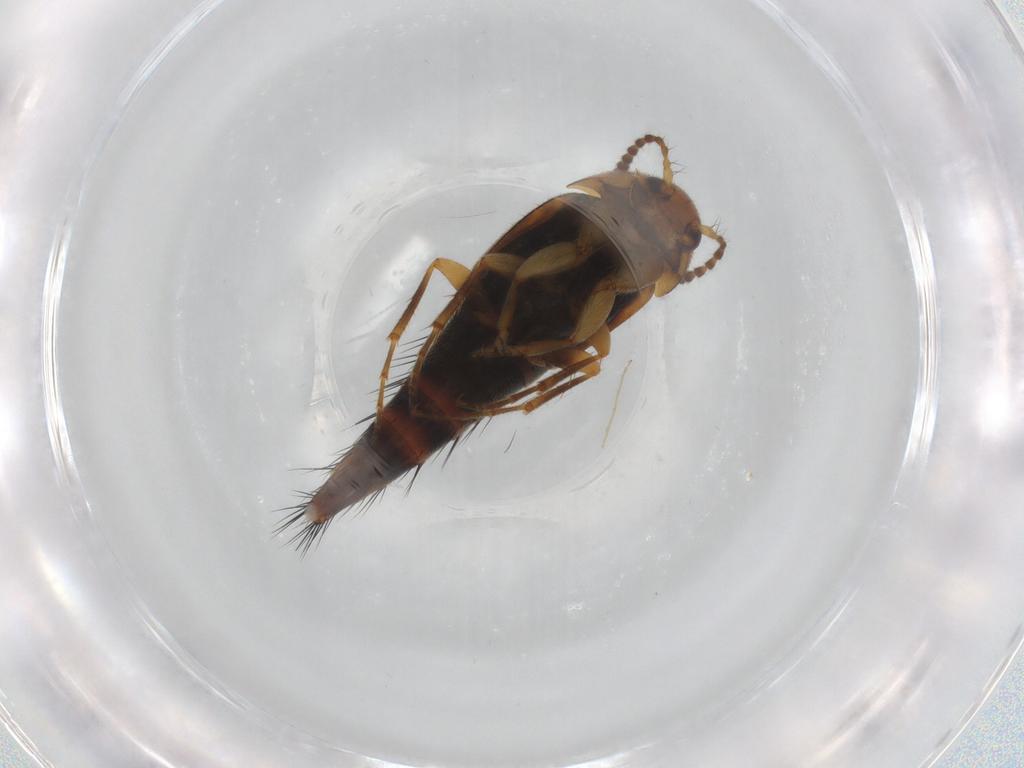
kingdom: Animalia
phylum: Arthropoda
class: Insecta
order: Coleoptera
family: Staphylinidae
